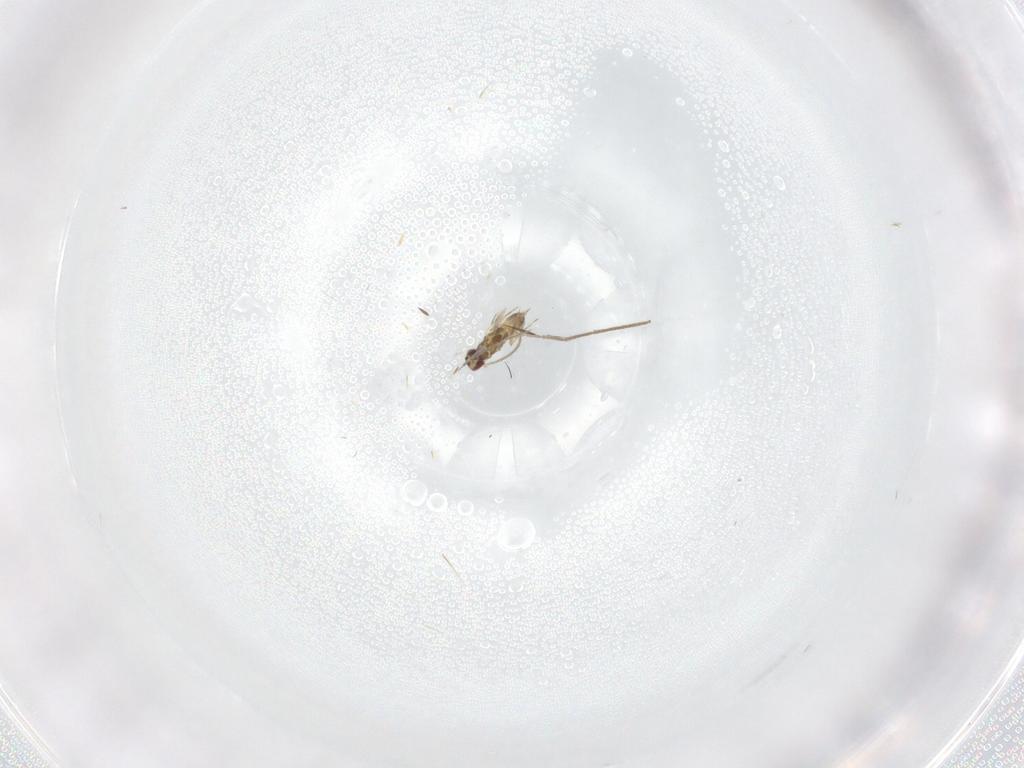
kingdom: Animalia
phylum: Arthropoda
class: Insecta
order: Hymenoptera
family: Mymaridae
